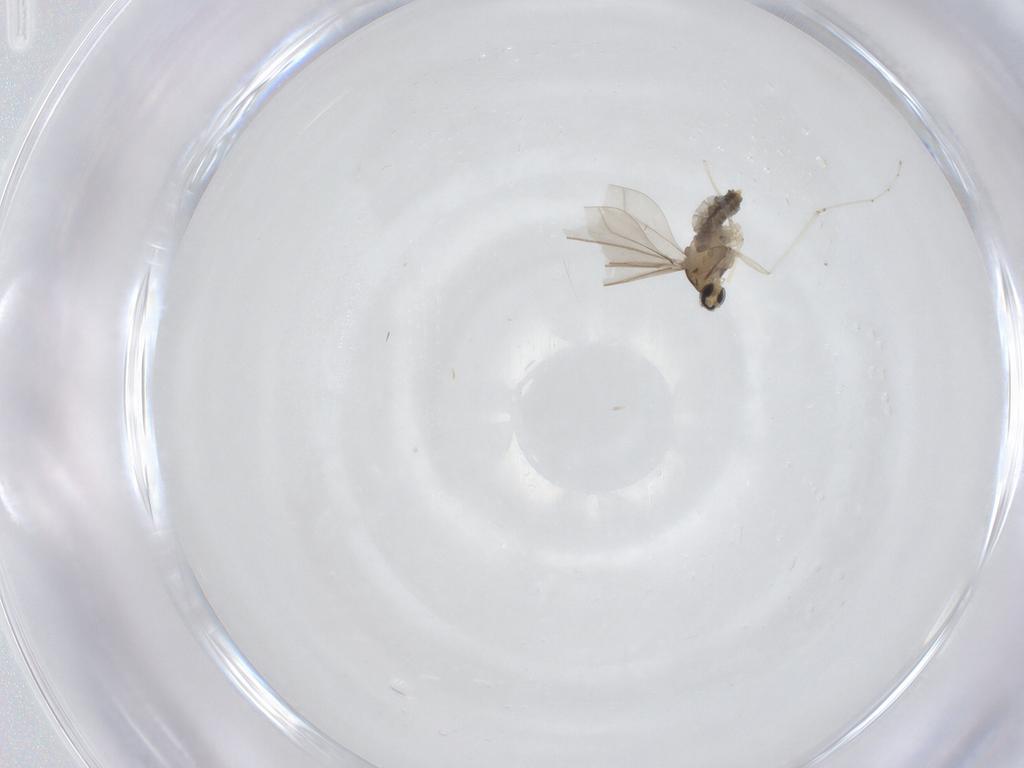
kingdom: Animalia
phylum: Arthropoda
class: Insecta
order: Diptera
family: Cecidomyiidae
